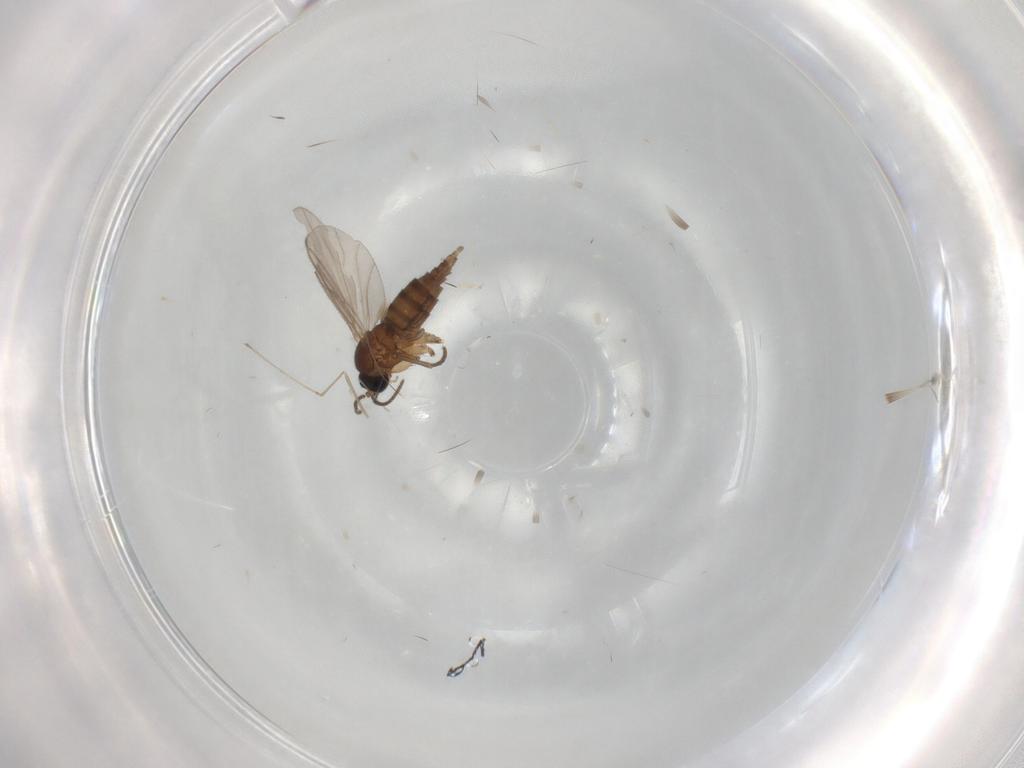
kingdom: Animalia
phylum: Arthropoda
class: Insecta
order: Diptera
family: Cecidomyiidae
